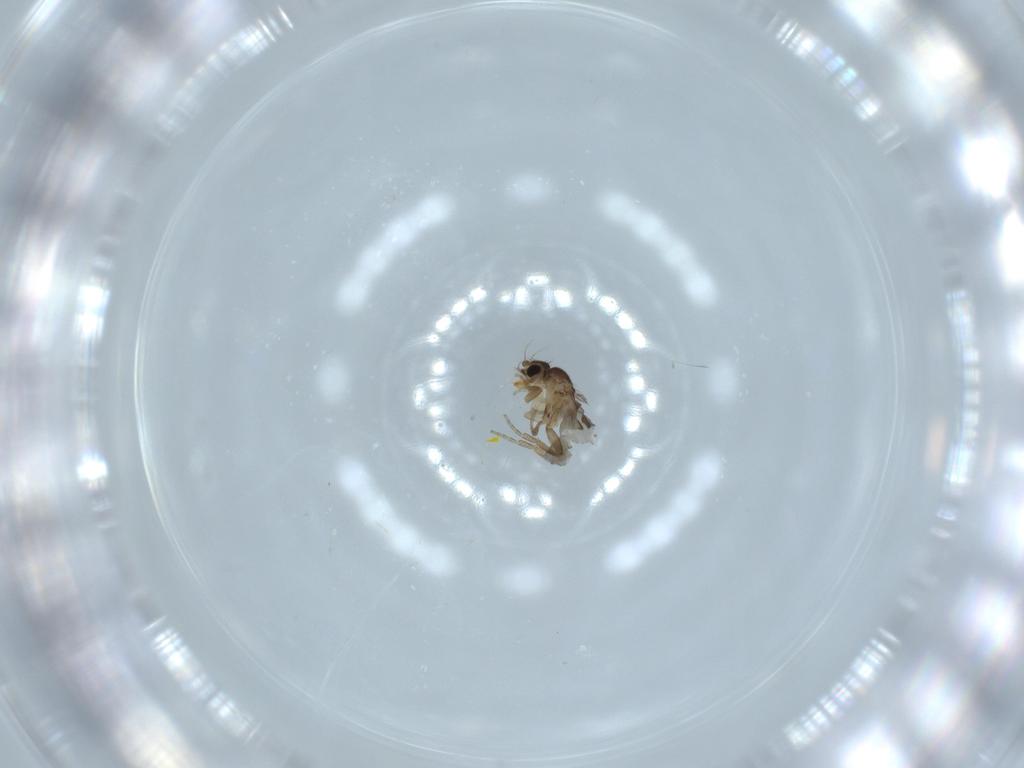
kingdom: Animalia
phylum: Arthropoda
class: Insecta
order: Diptera
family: Phoridae
